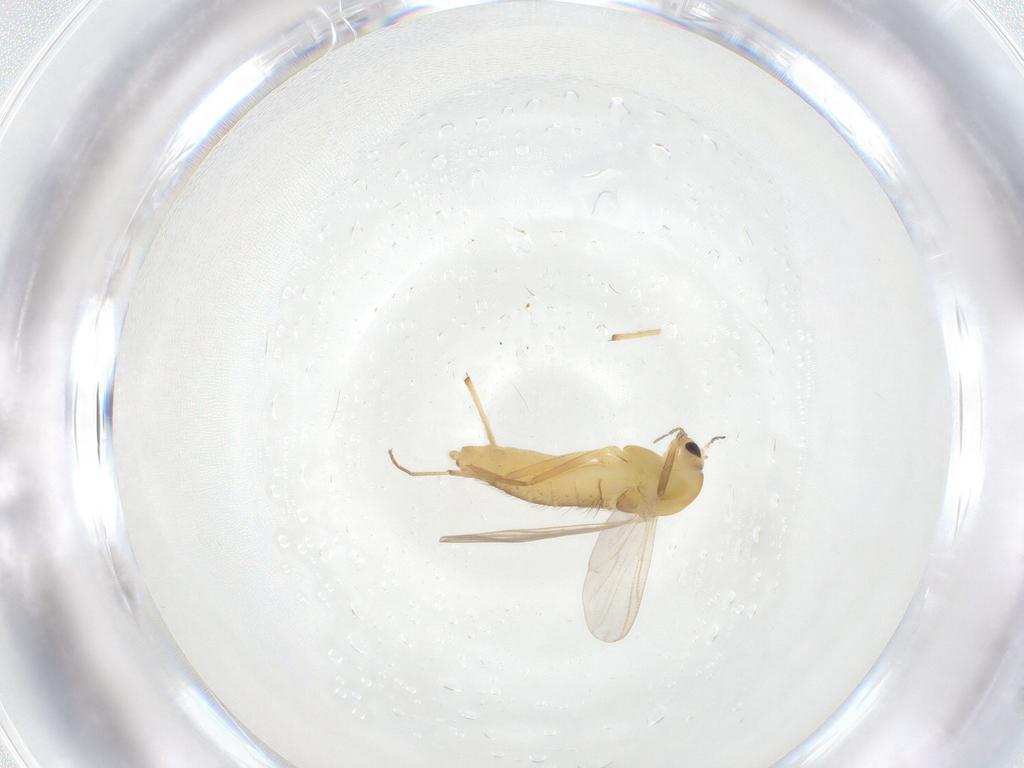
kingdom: Animalia
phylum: Arthropoda
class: Insecta
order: Diptera
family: Chironomidae
